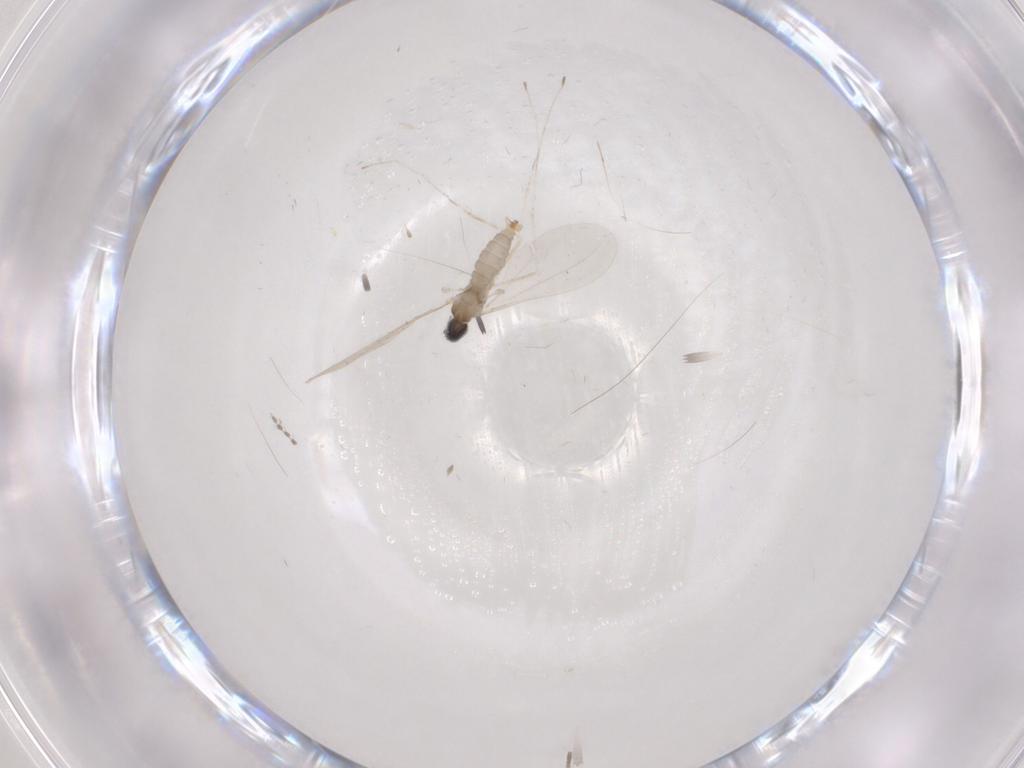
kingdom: Animalia
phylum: Arthropoda
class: Insecta
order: Diptera
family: Cecidomyiidae
